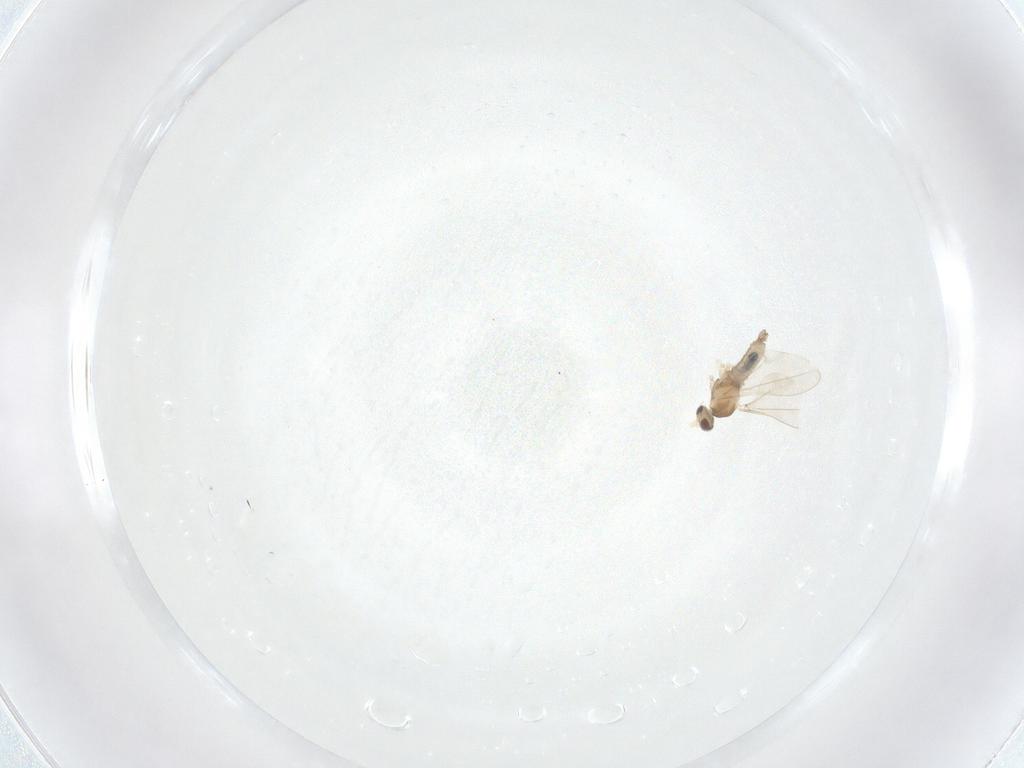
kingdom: Animalia
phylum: Arthropoda
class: Insecta
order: Diptera
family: Cecidomyiidae
